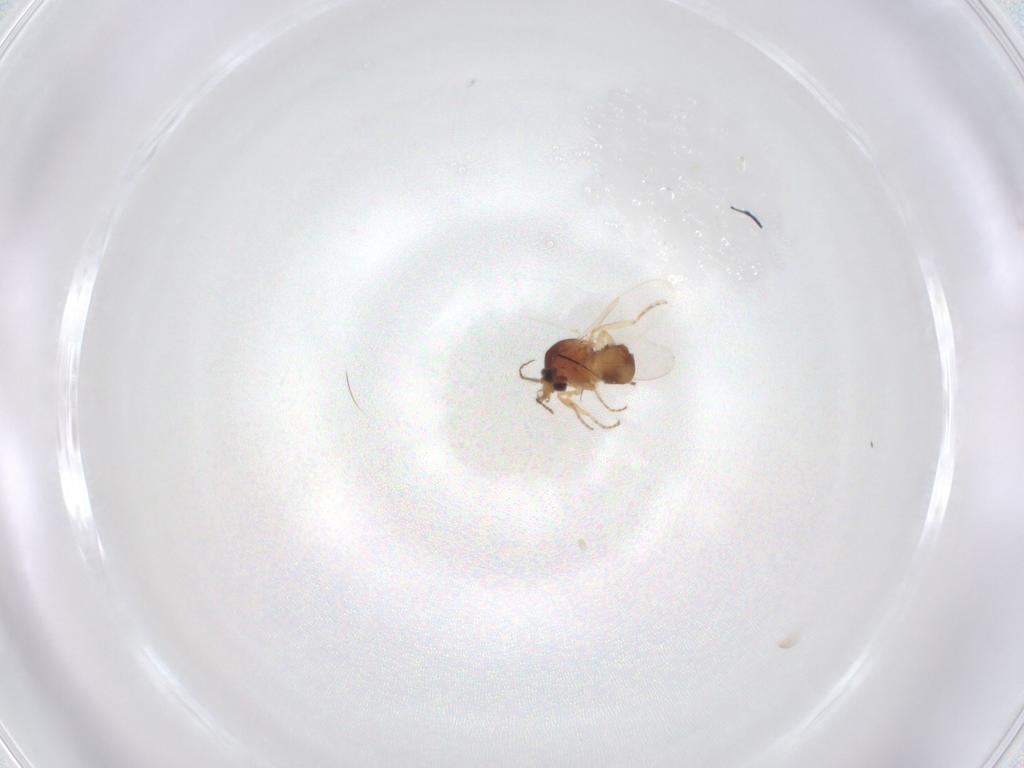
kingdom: Animalia
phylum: Arthropoda
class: Insecta
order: Diptera
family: Ceratopogonidae
